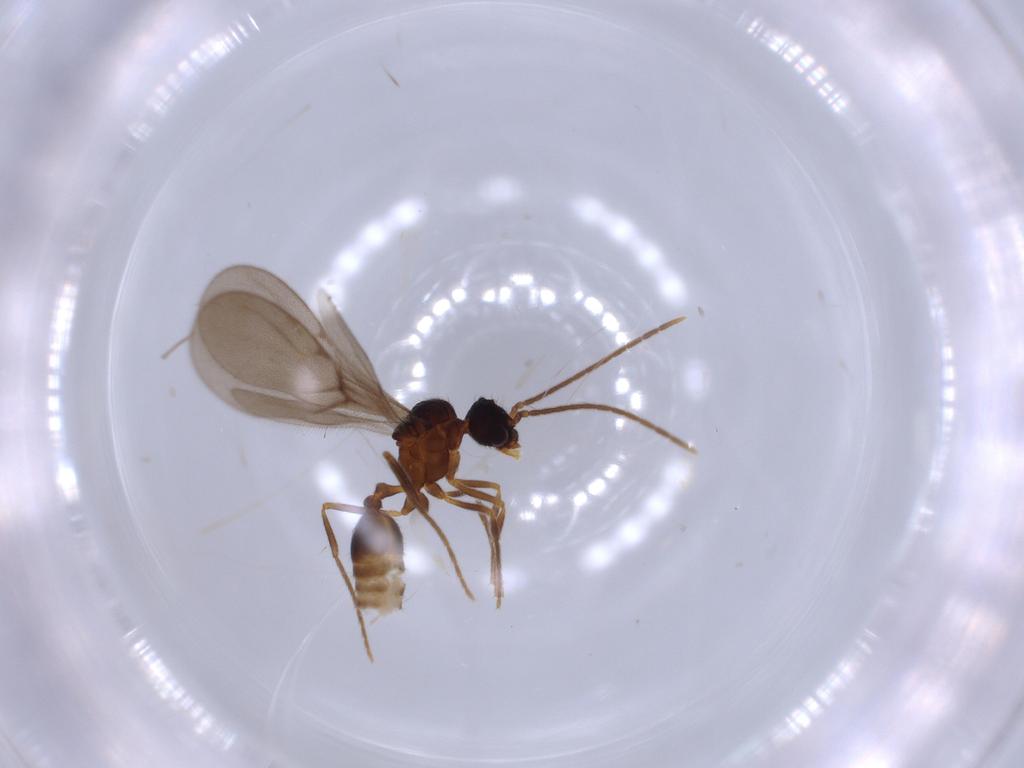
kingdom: Animalia
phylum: Arthropoda
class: Insecta
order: Hymenoptera
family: Formicidae
